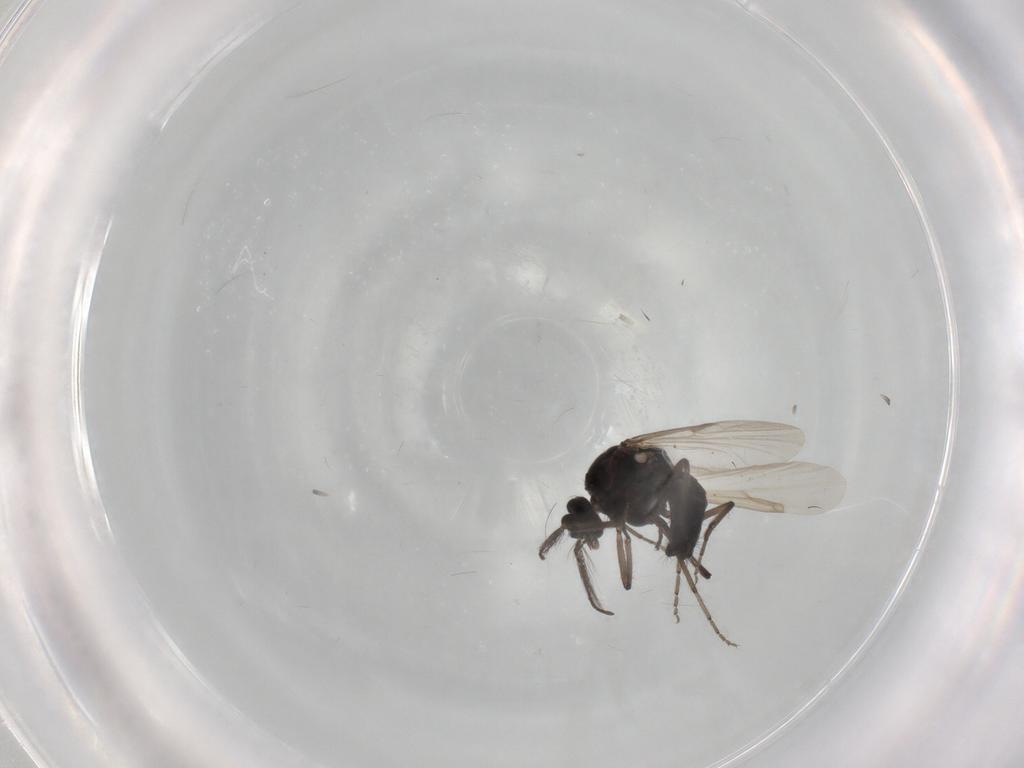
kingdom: Animalia
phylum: Arthropoda
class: Insecta
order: Diptera
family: Ceratopogonidae
